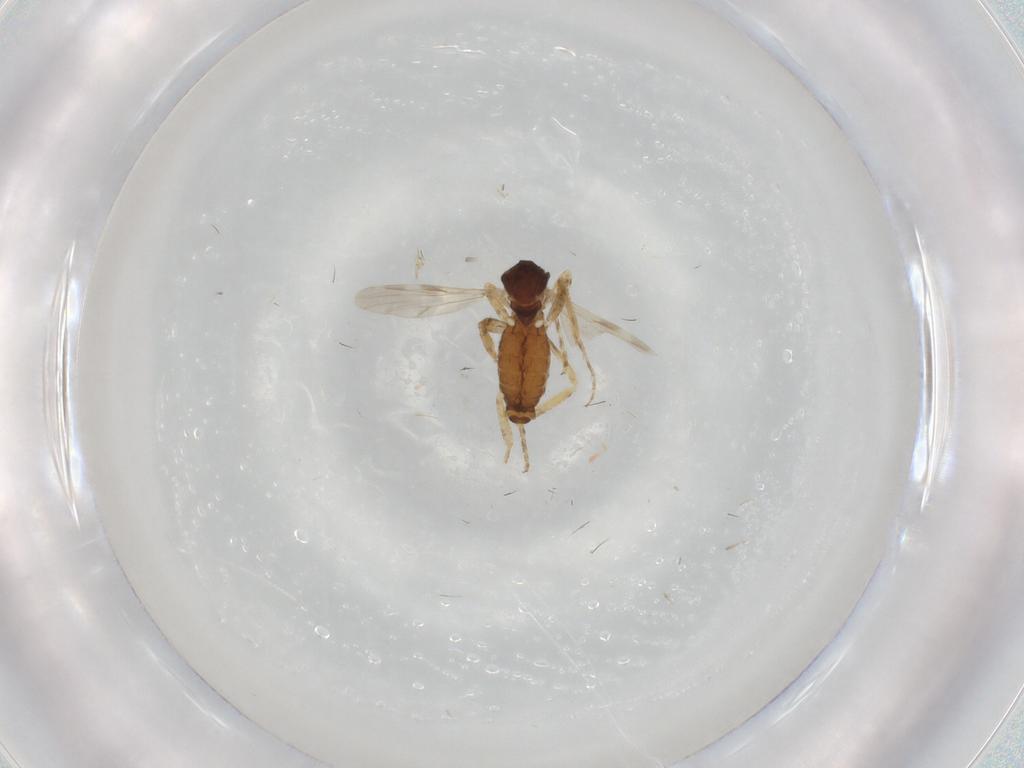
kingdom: Animalia
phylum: Arthropoda
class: Insecta
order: Diptera
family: Ceratopogonidae
